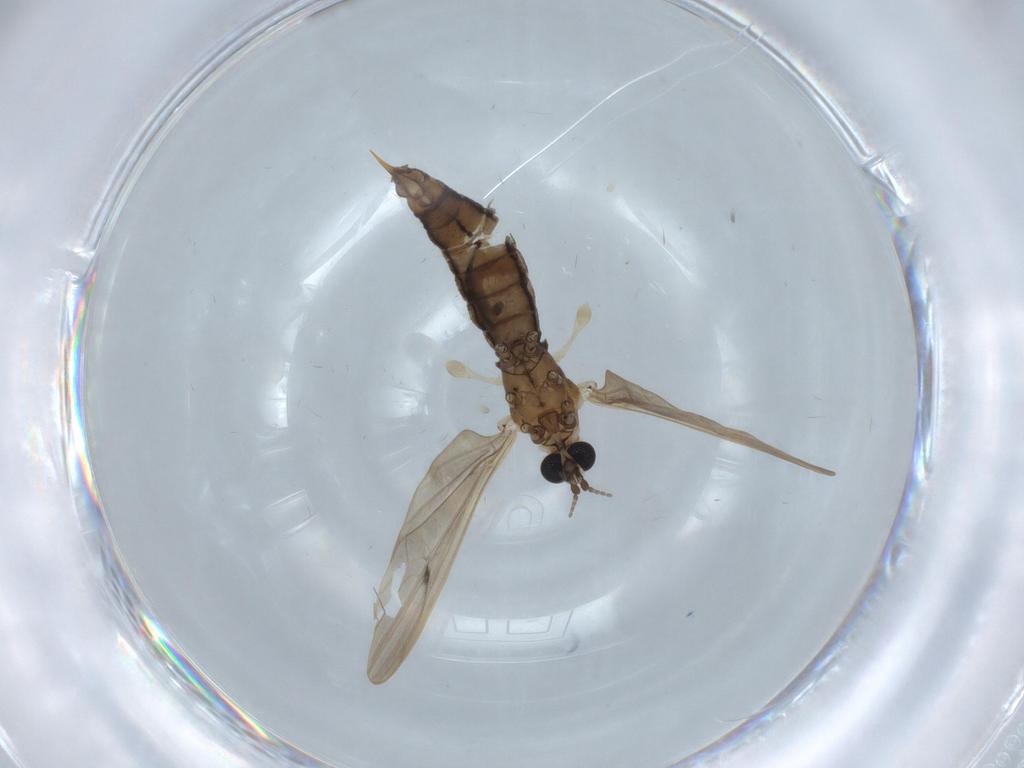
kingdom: Animalia
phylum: Arthropoda
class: Insecta
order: Diptera
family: Limoniidae
